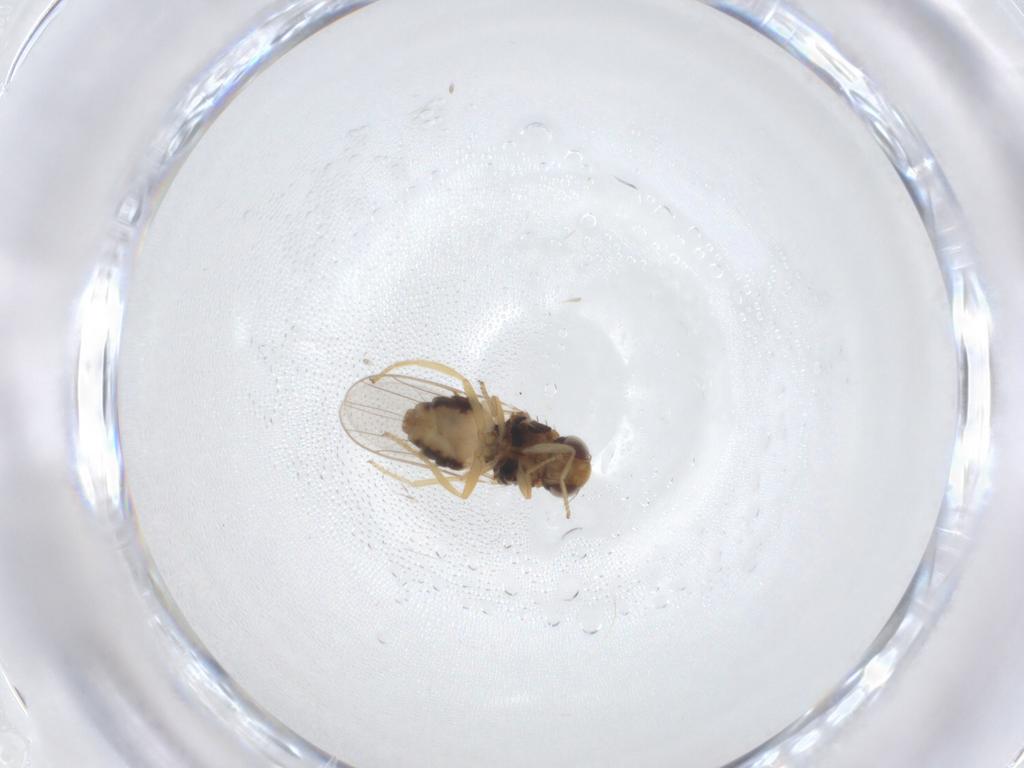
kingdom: Animalia
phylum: Arthropoda
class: Insecta
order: Diptera
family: Chloropidae
